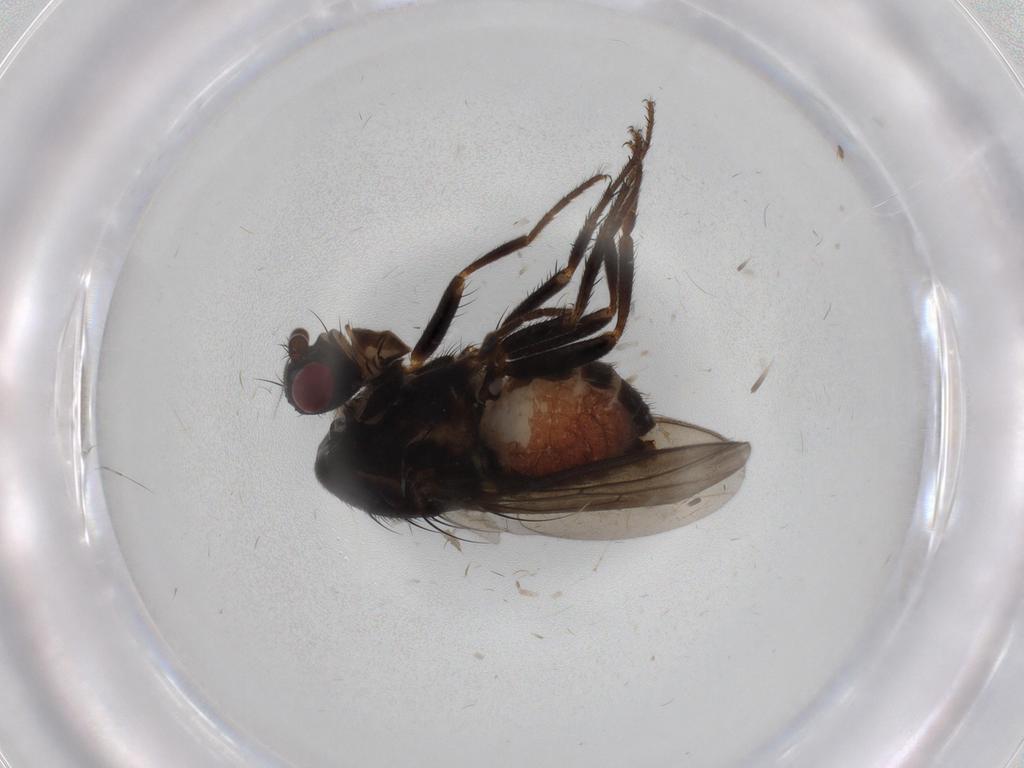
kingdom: Animalia
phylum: Arthropoda
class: Insecta
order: Diptera
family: Sphaeroceridae
